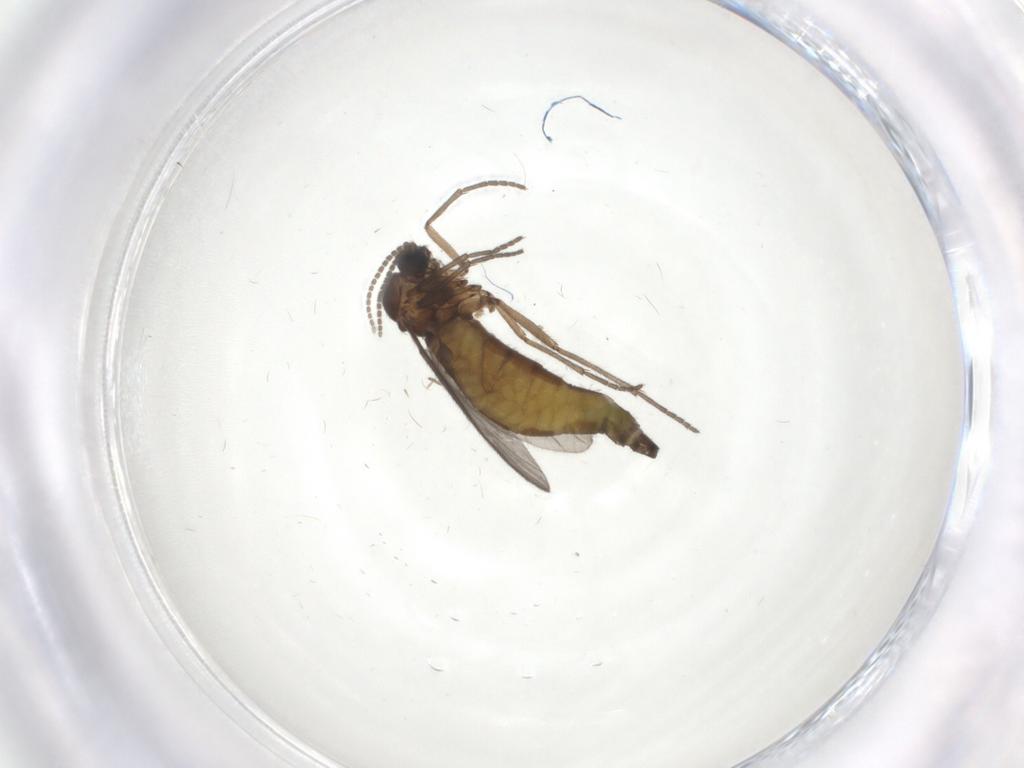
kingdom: Animalia
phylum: Arthropoda
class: Insecta
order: Diptera
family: Sciaridae
